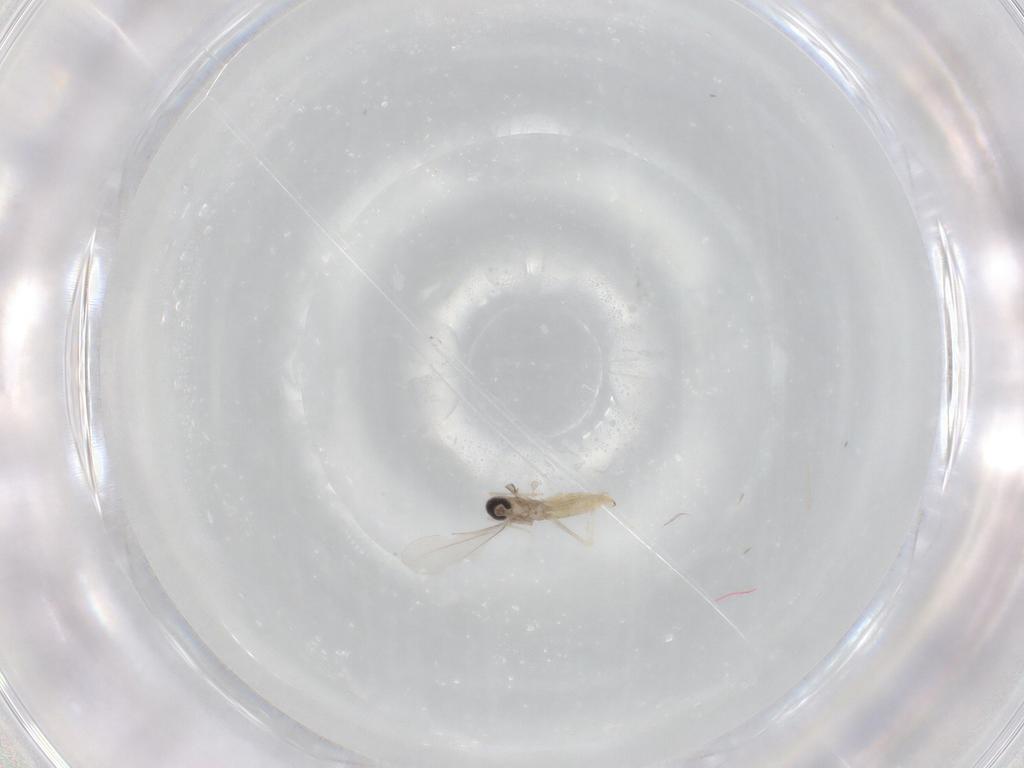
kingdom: Animalia
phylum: Arthropoda
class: Insecta
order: Diptera
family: Cecidomyiidae
